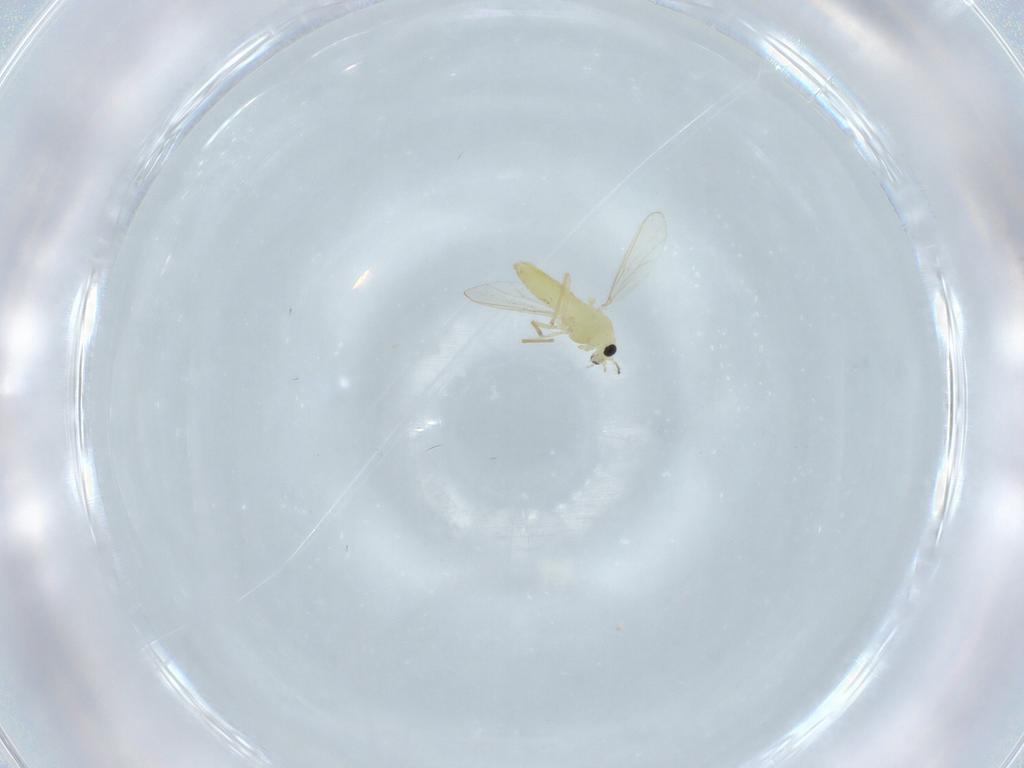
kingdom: Animalia
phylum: Arthropoda
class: Insecta
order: Diptera
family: Chironomidae
